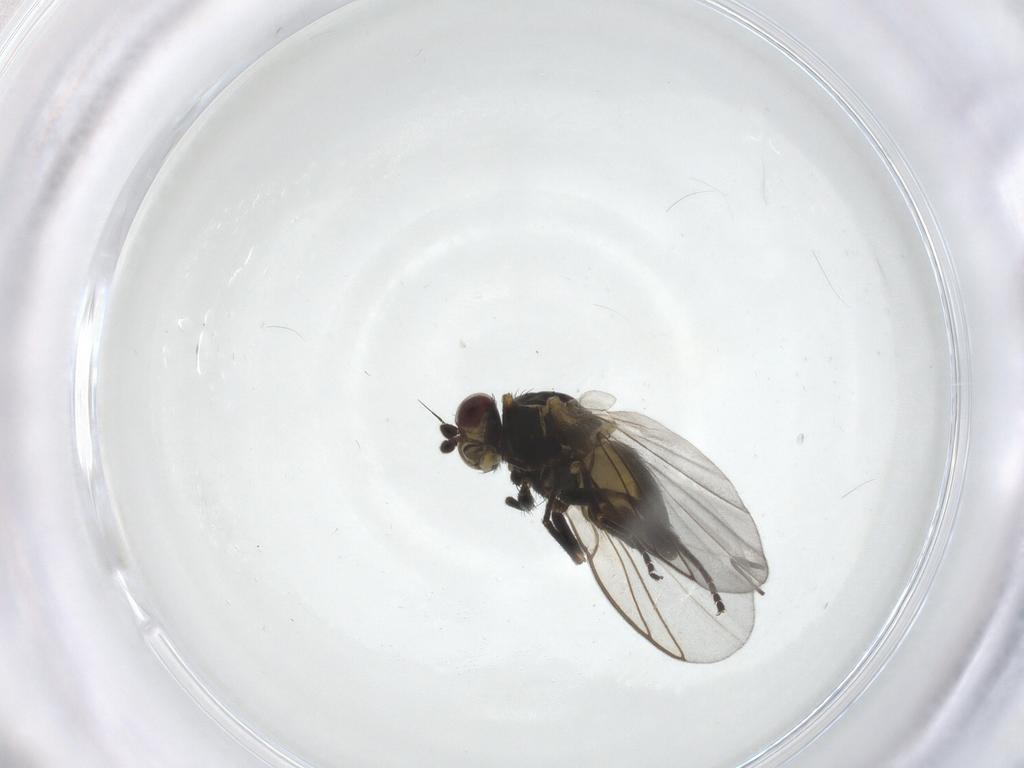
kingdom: Animalia
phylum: Arthropoda
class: Insecta
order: Diptera
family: Agromyzidae
